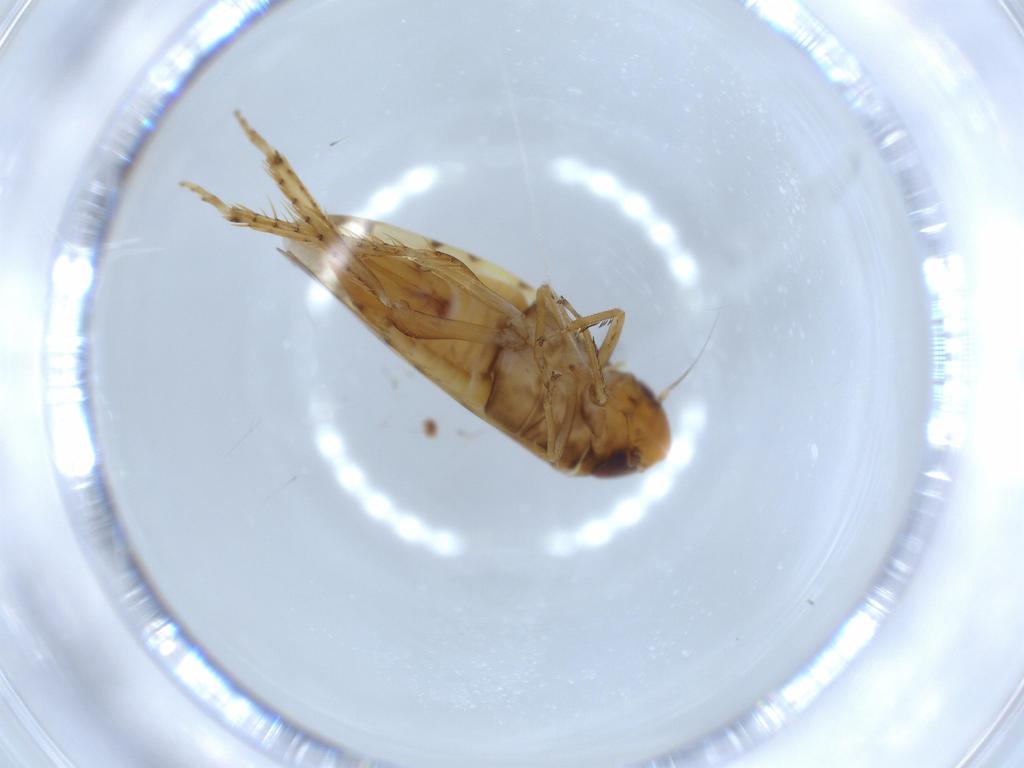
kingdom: Animalia
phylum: Arthropoda
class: Insecta
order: Hemiptera
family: Cicadellidae
